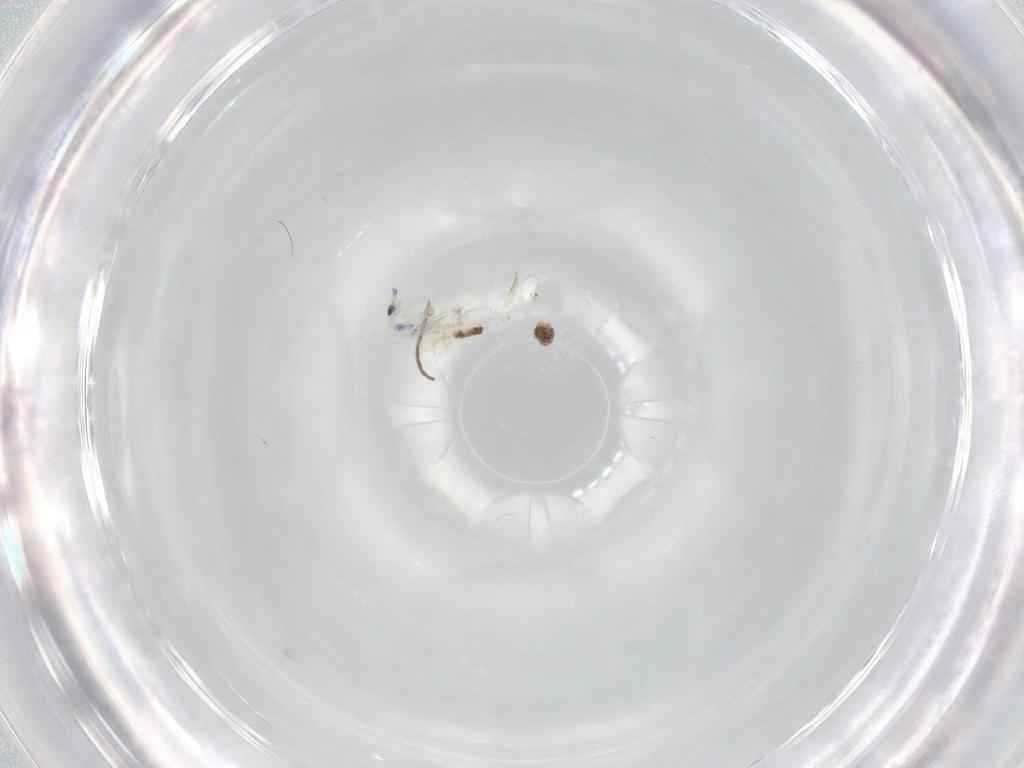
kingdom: Animalia
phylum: Arthropoda
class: Collembola
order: Entomobryomorpha
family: Entomobryidae
